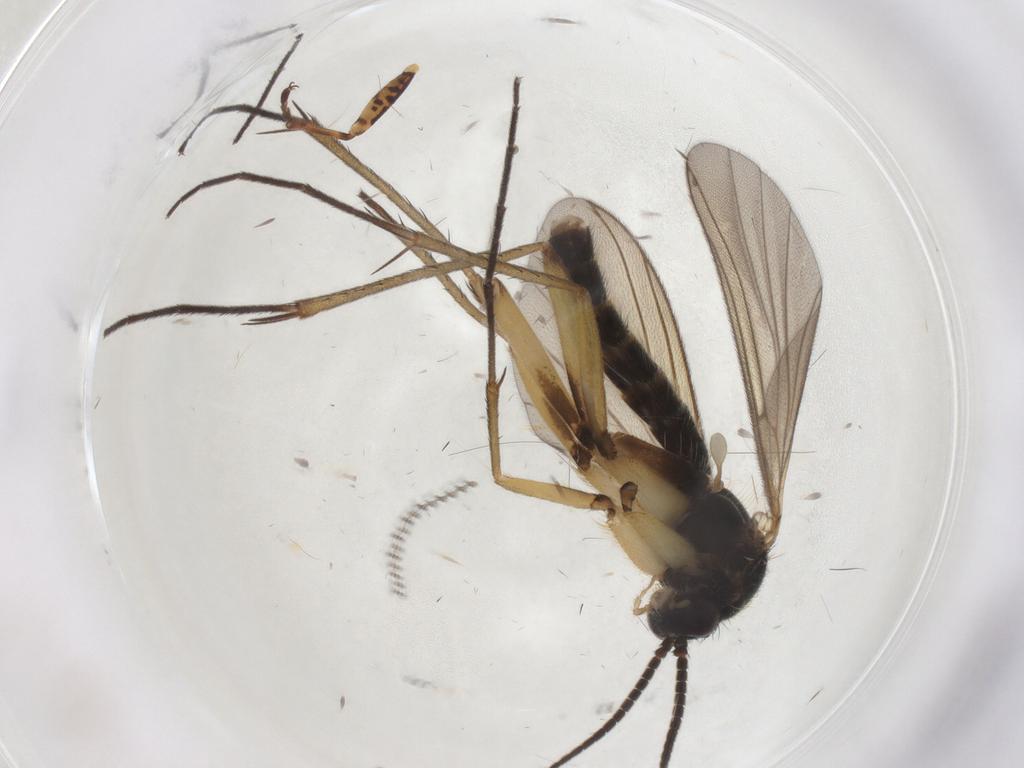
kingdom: Animalia
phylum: Arthropoda
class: Insecta
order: Diptera
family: Mycetophilidae
